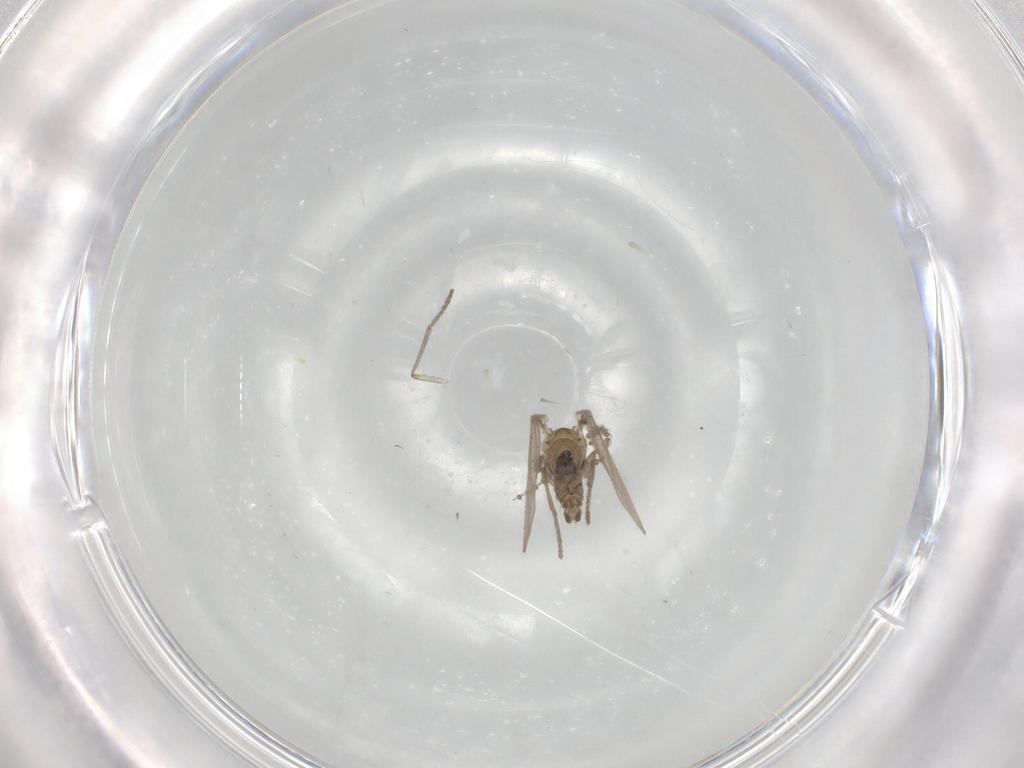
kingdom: Animalia
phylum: Arthropoda
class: Insecta
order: Diptera
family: Psychodidae
